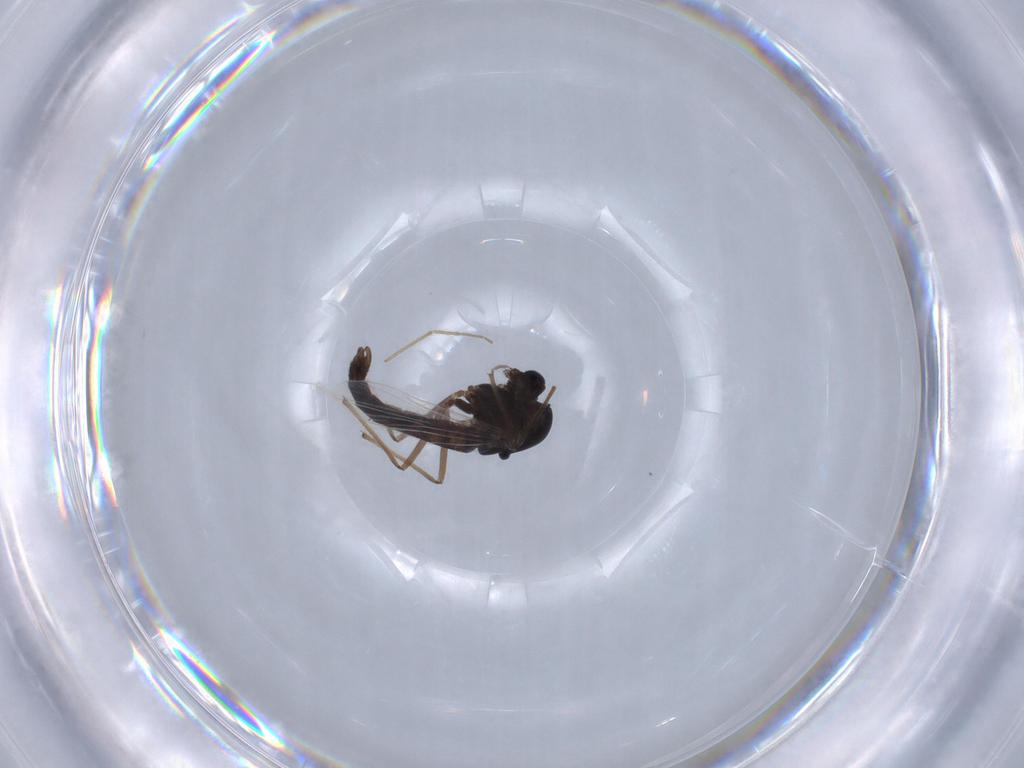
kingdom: Animalia
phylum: Arthropoda
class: Insecta
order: Diptera
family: Chironomidae
